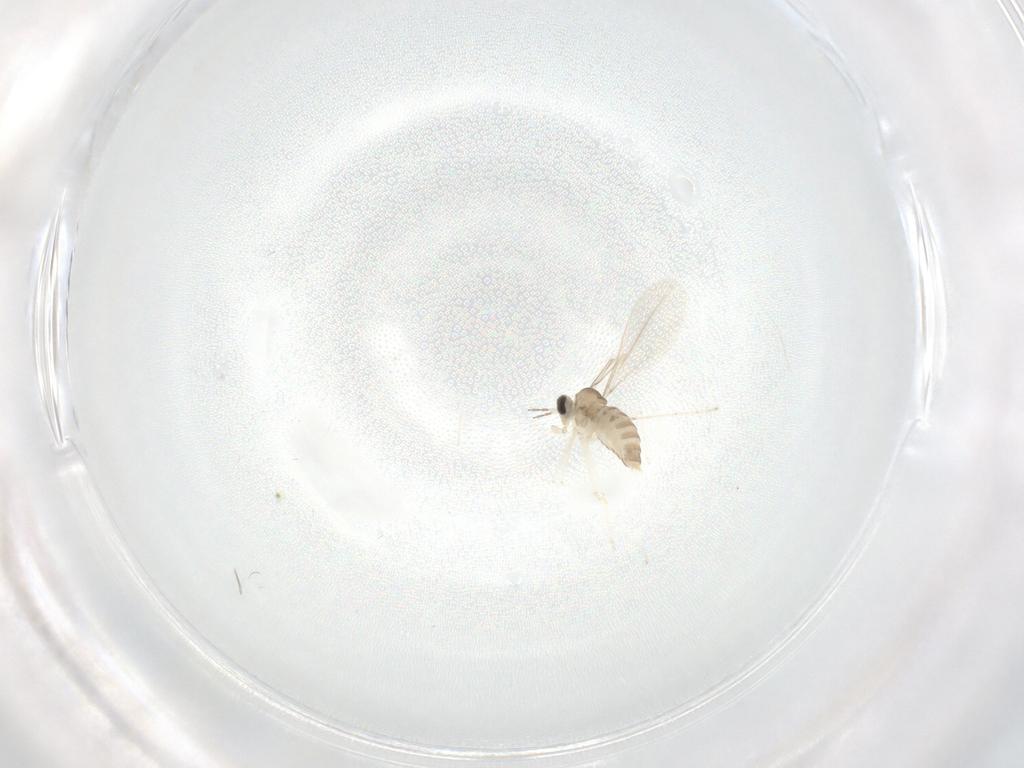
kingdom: Animalia
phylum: Arthropoda
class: Insecta
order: Diptera
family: Cecidomyiidae
